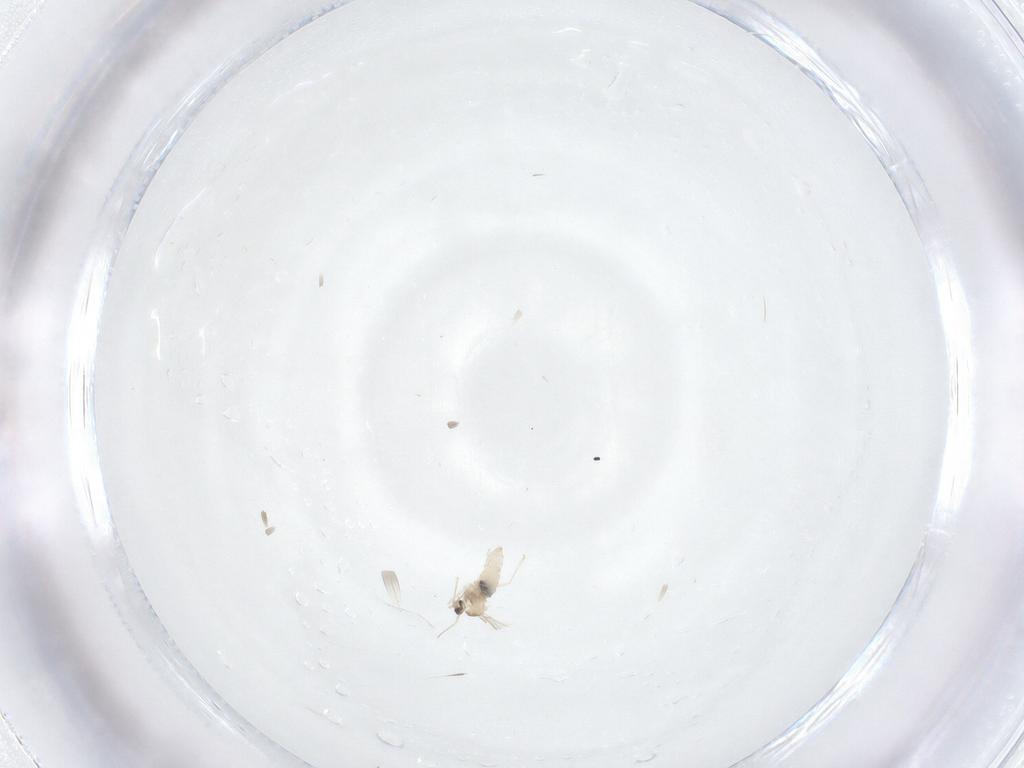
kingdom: Animalia
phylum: Arthropoda
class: Insecta
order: Diptera
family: Cecidomyiidae
